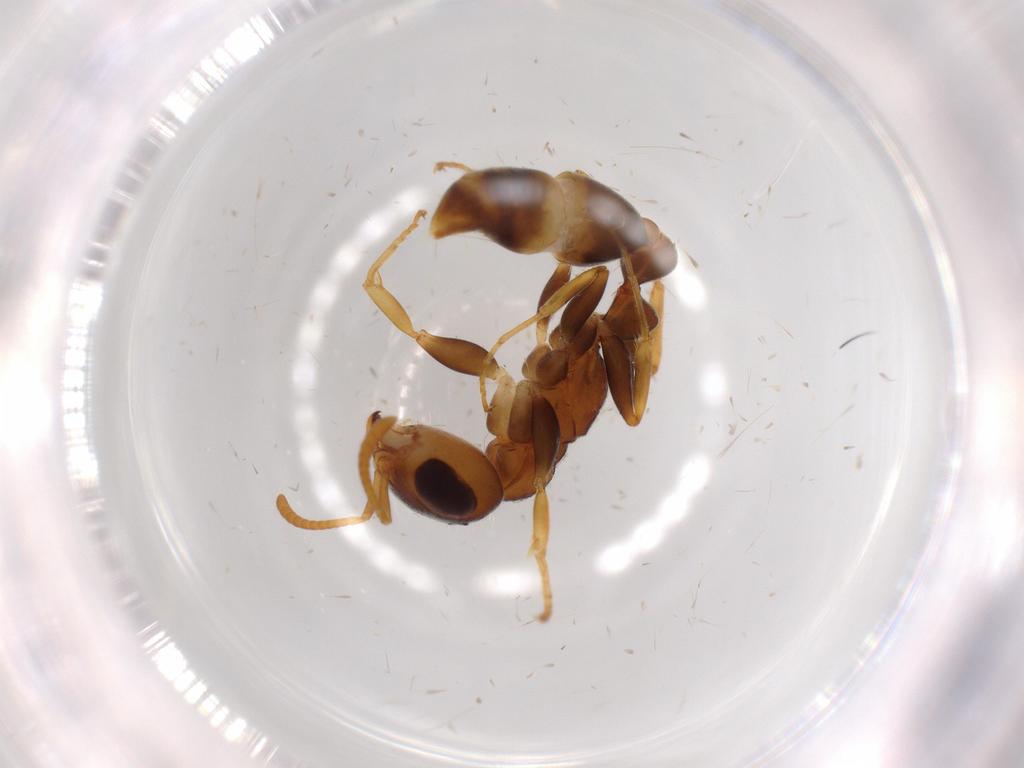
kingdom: Animalia
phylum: Arthropoda
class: Insecta
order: Hymenoptera
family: Formicidae
